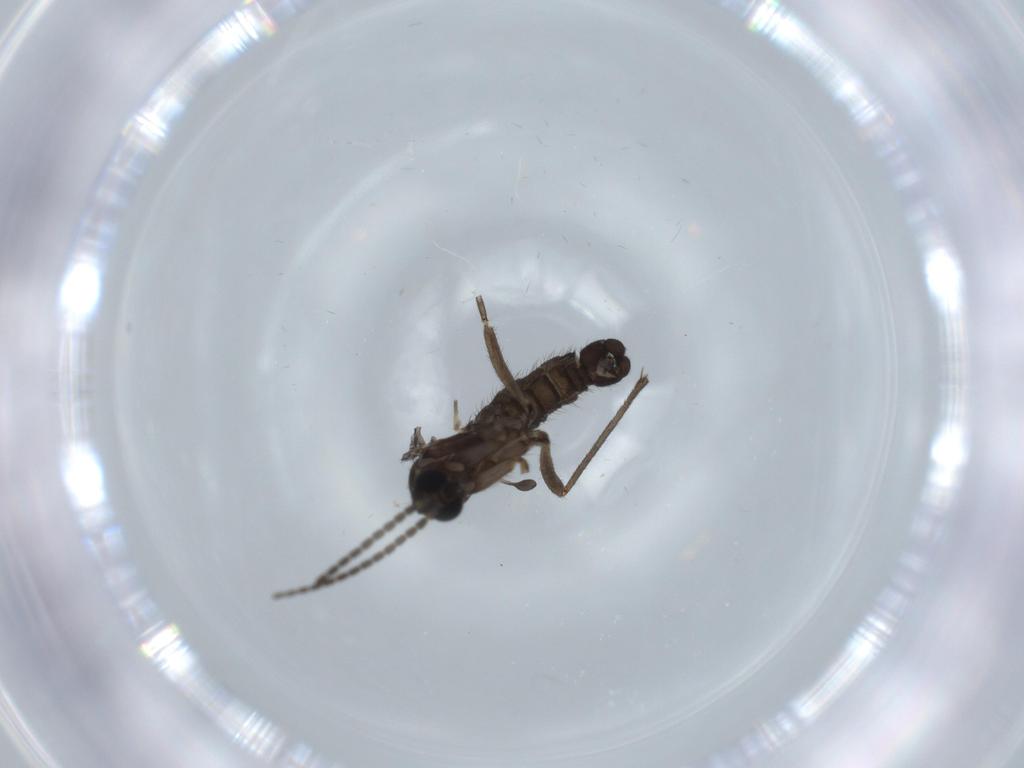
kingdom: Animalia
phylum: Arthropoda
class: Insecta
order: Diptera
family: Sciaridae
